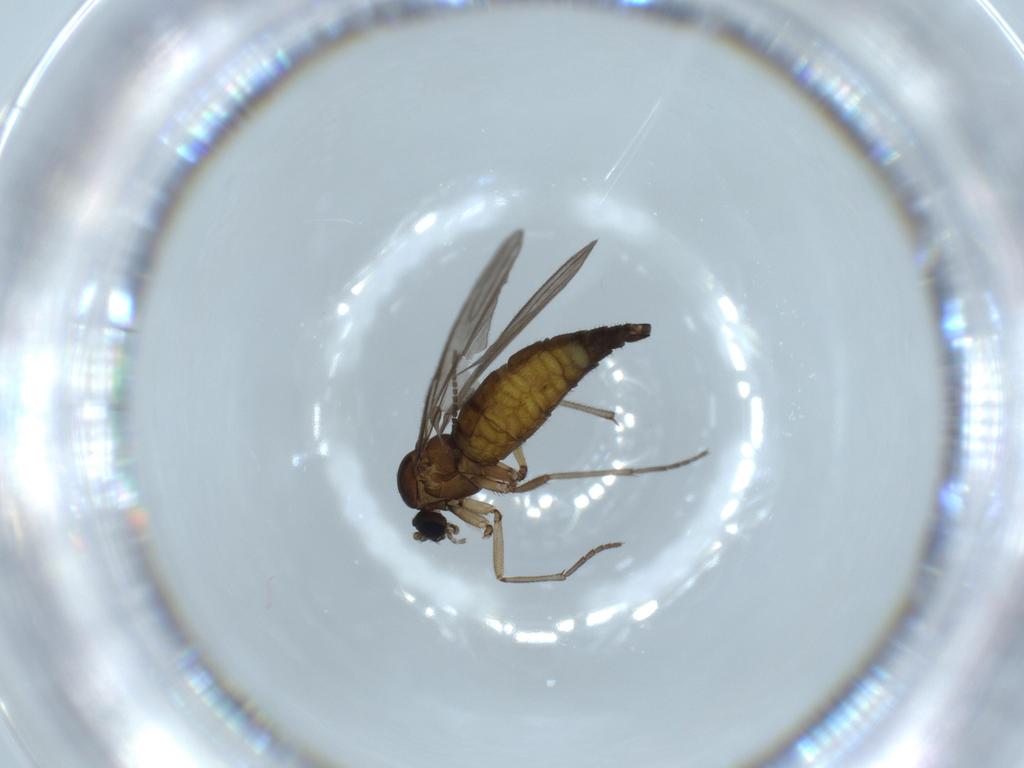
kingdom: Animalia
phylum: Arthropoda
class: Insecta
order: Diptera
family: Sciaridae
